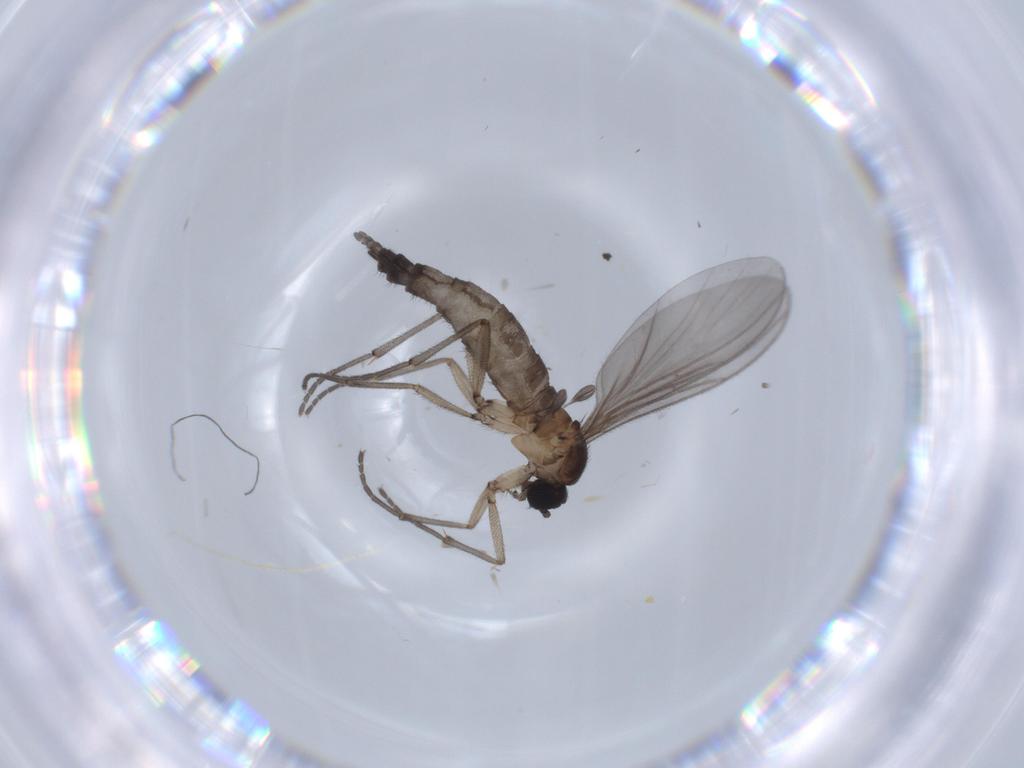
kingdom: Animalia
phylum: Arthropoda
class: Insecta
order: Diptera
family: Sciaridae
